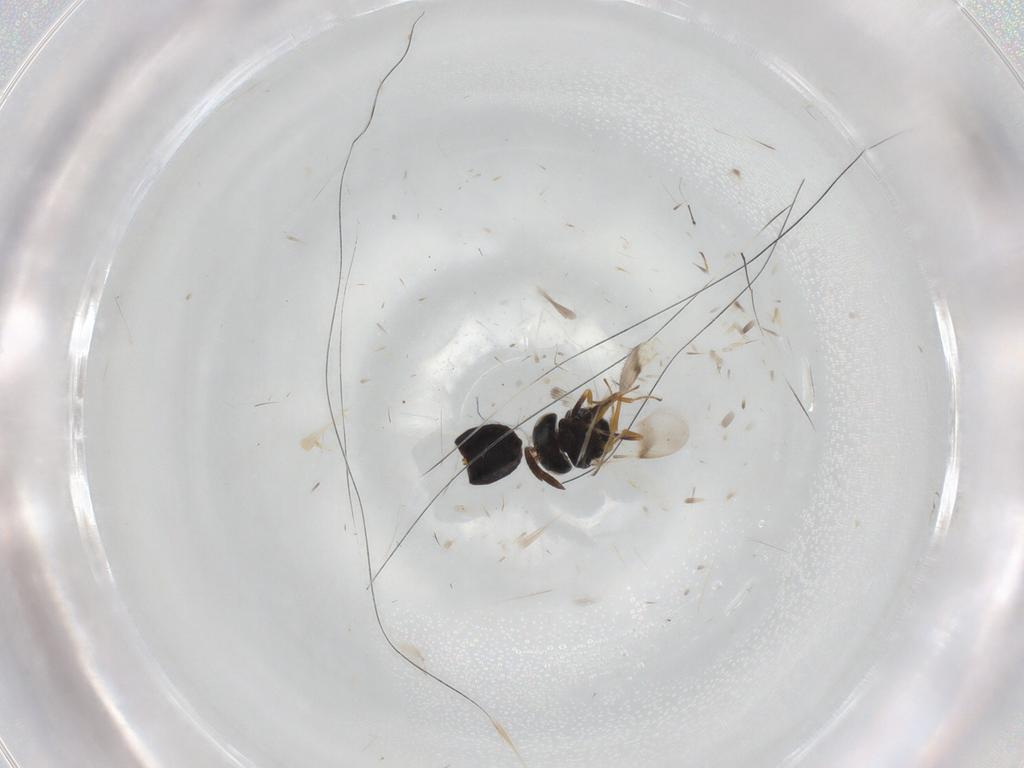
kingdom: Animalia
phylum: Arthropoda
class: Insecta
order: Hymenoptera
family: Scelionidae
